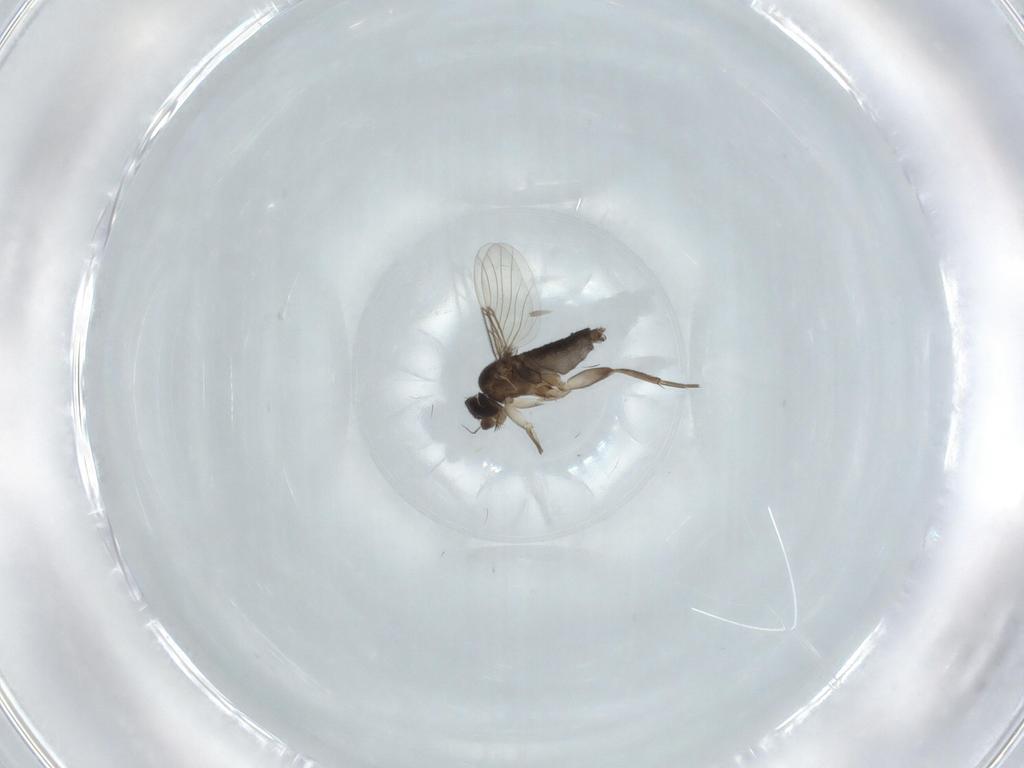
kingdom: Animalia
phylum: Arthropoda
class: Insecta
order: Diptera
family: Phoridae
